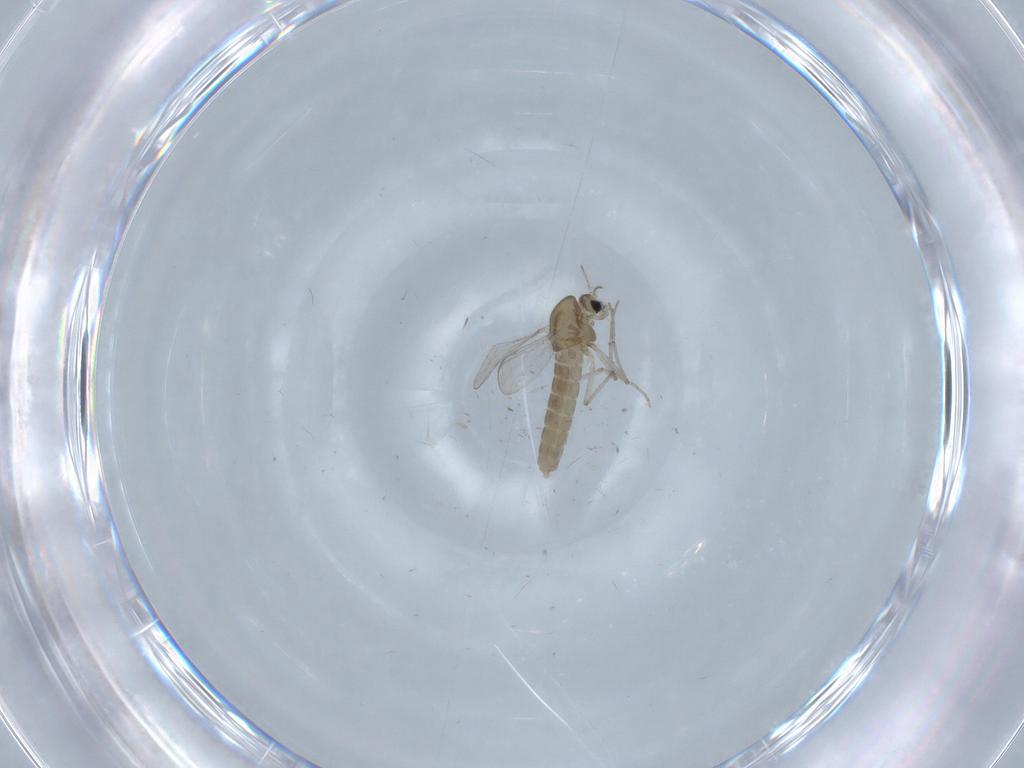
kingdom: Animalia
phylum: Arthropoda
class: Insecta
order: Diptera
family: Chironomidae
